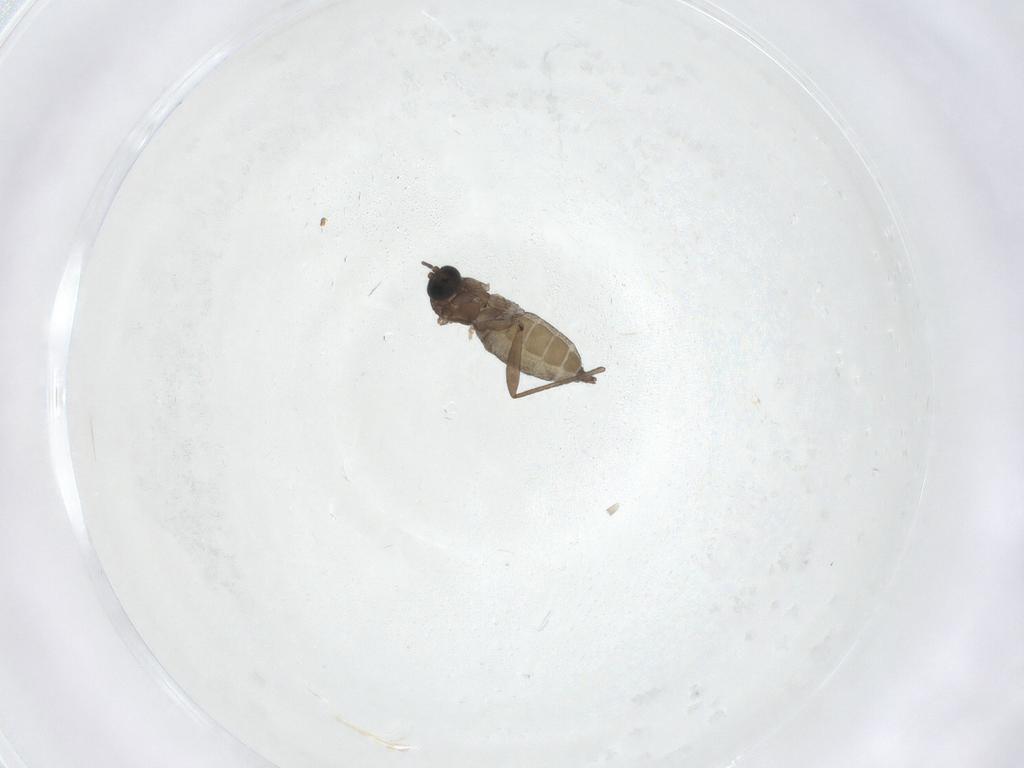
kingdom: Animalia
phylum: Arthropoda
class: Insecta
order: Diptera
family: Sciaridae
